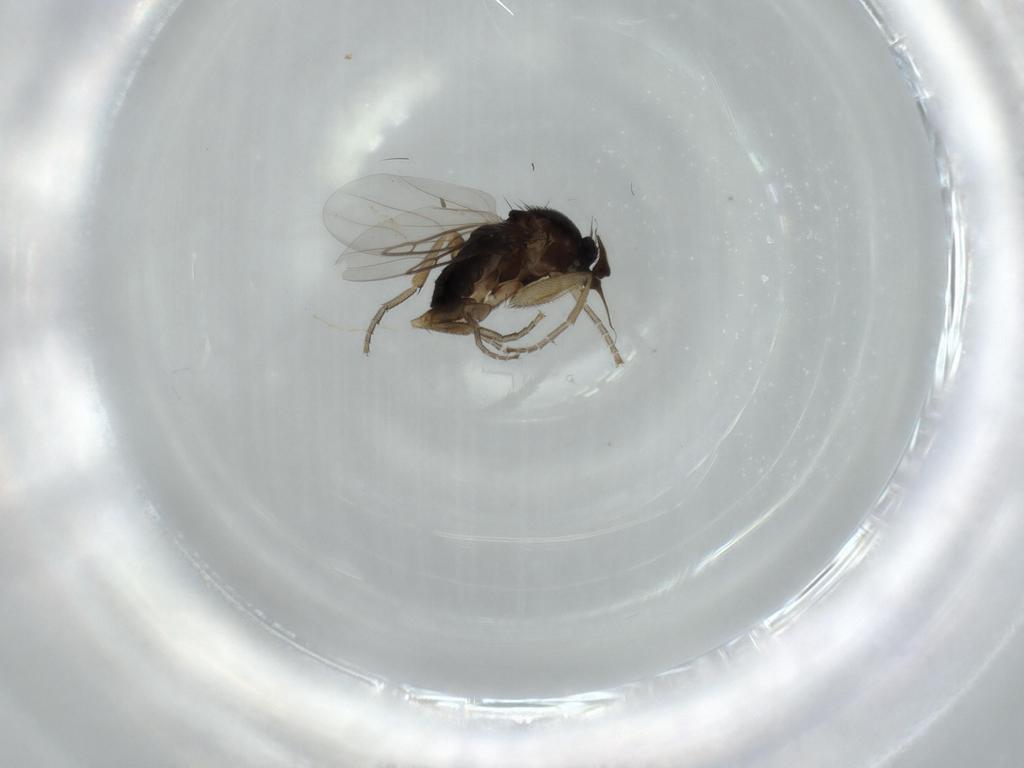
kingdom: Animalia
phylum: Arthropoda
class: Insecta
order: Diptera
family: Phoridae
